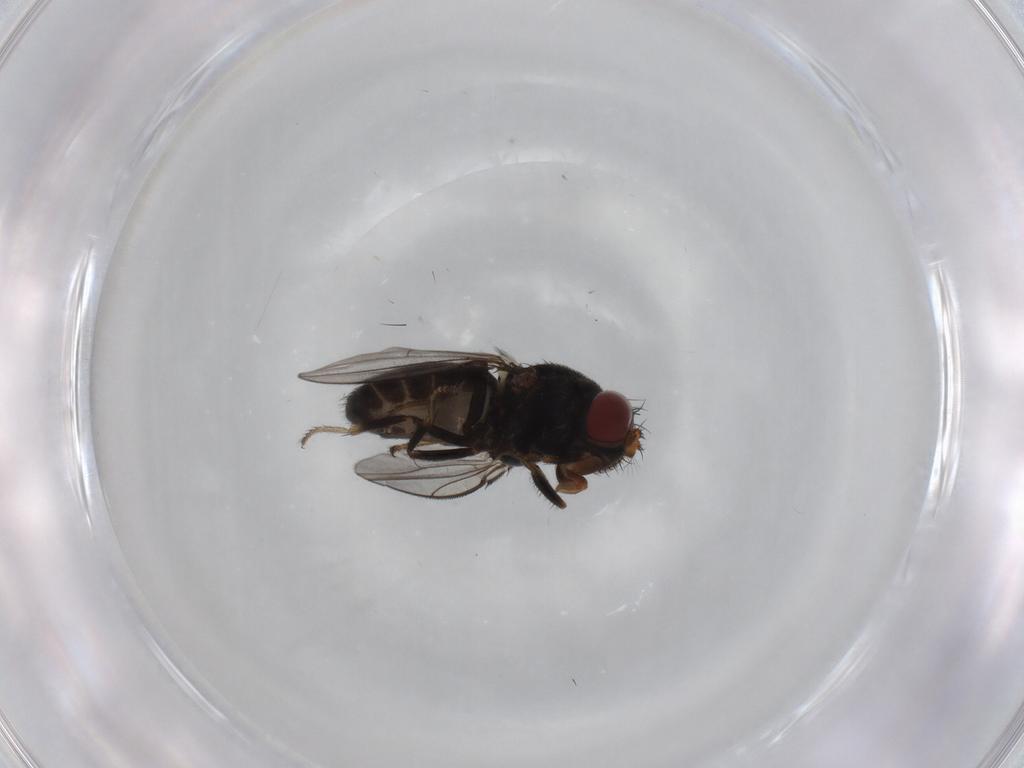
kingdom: Animalia
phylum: Arthropoda
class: Insecta
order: Diptera
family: Ephydridae
